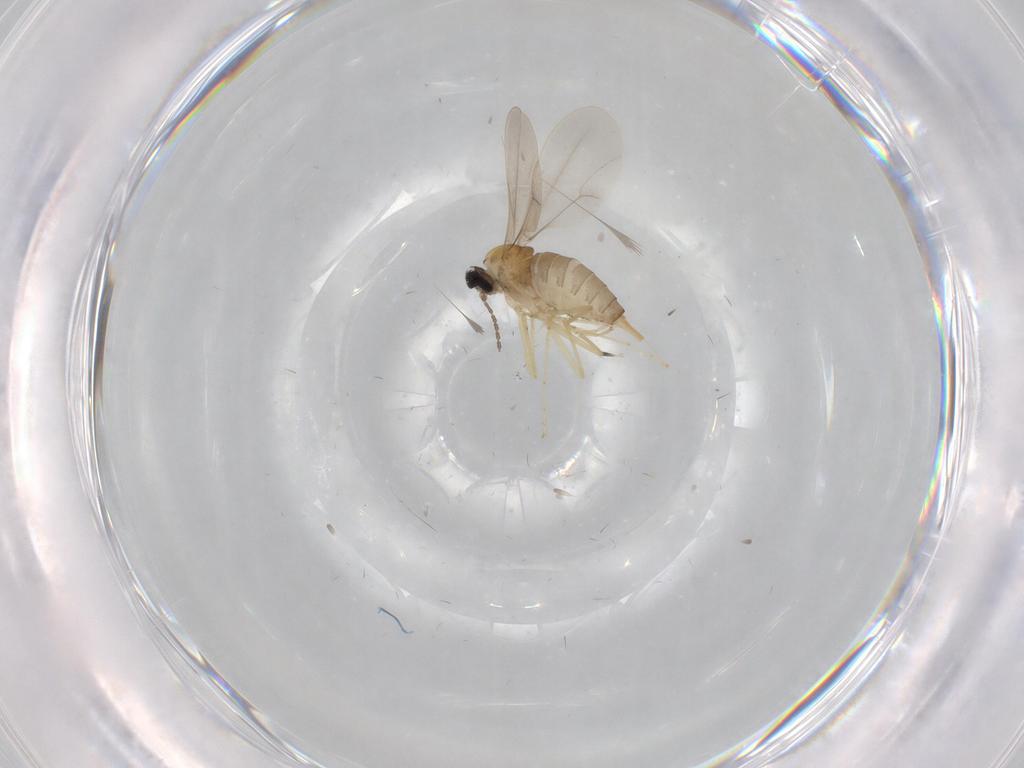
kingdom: Animalia
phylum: Arthropoda
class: Insecta
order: Diptera
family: Cecidomyiidae
